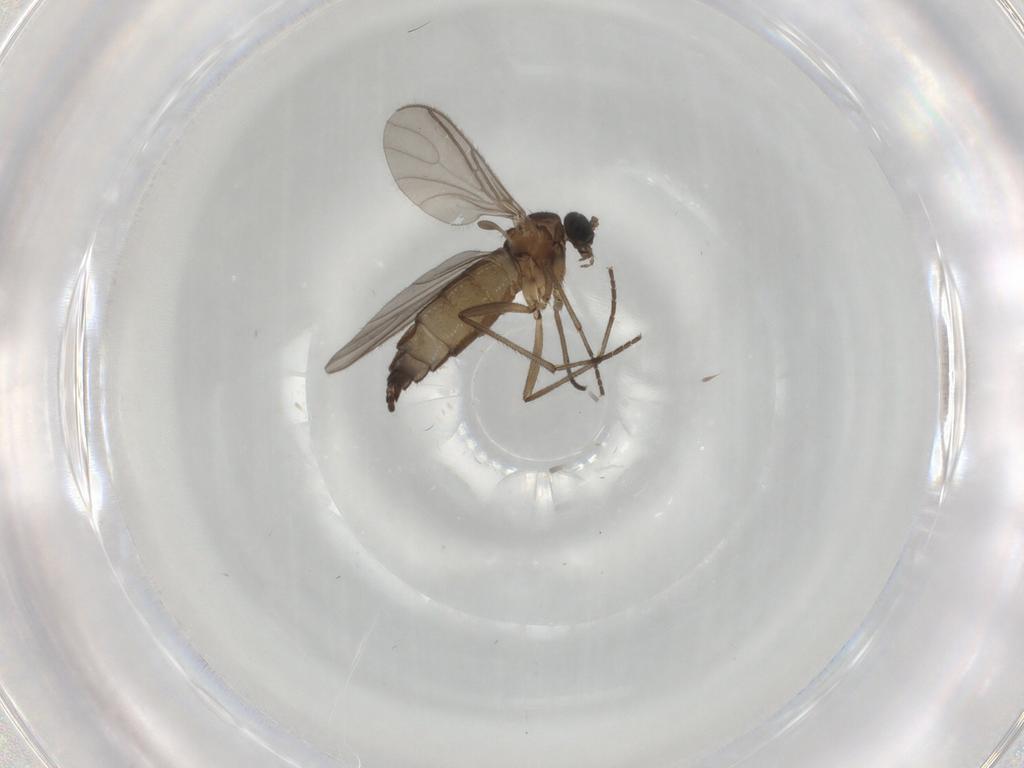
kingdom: Animalia
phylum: Arthropoda
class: Insecta
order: Diptera
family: Sciaridae
